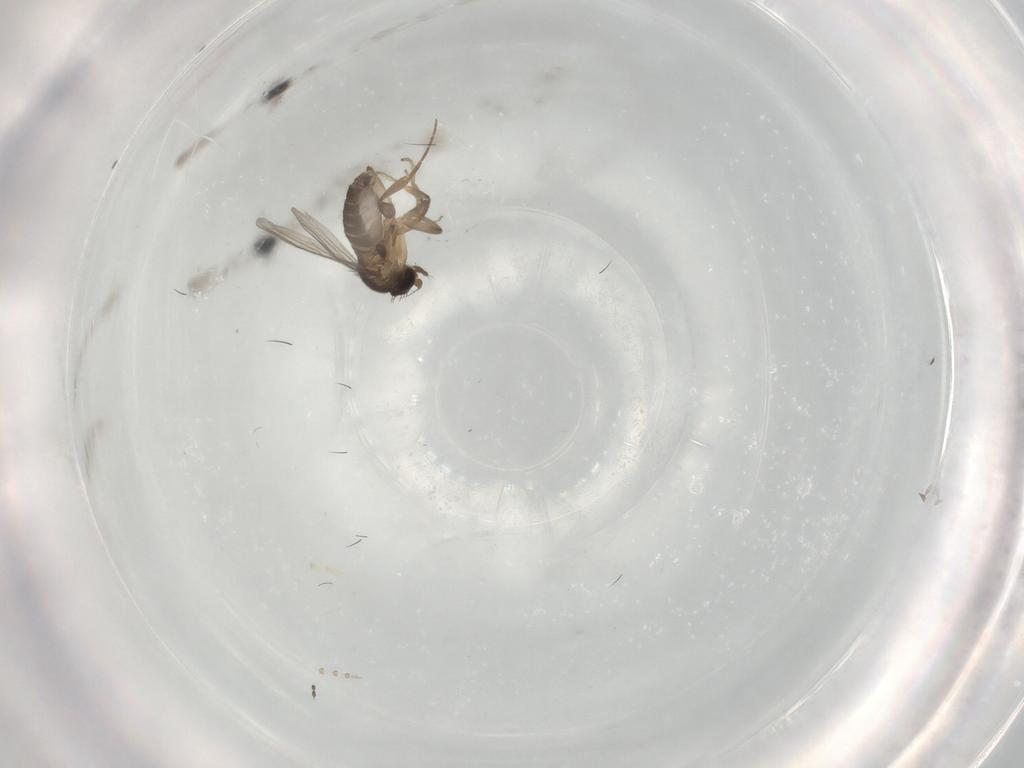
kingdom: Animalia
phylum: Arthropoda
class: Insecta
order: Diptera
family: Psychodidae
